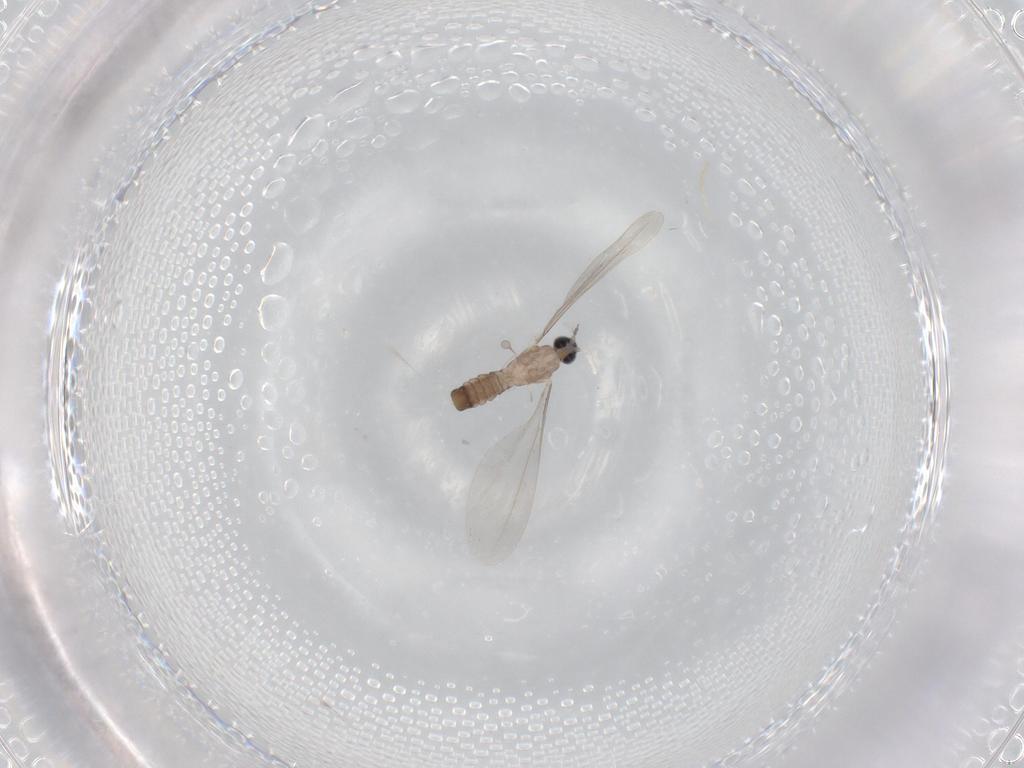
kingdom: Animalia
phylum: Arthropoda
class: Insecta
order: Diptera
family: Cecidomyiidae
